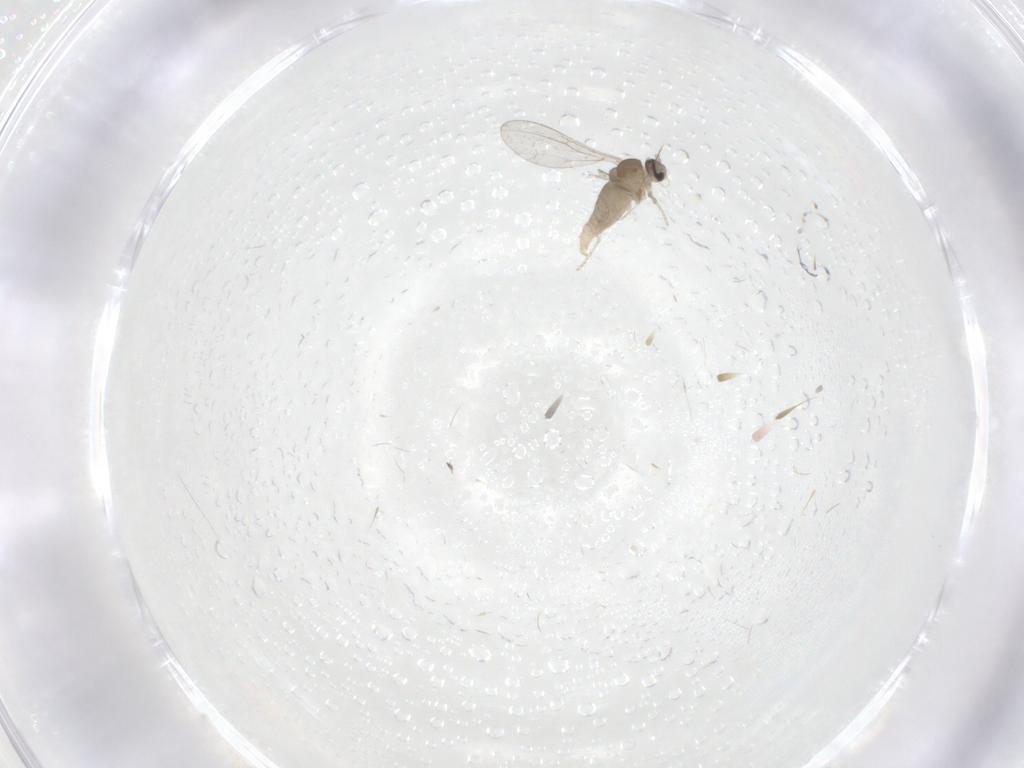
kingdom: Animalia
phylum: Arthropoda
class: Insecta
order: Diptera
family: Cecidomyiidae
